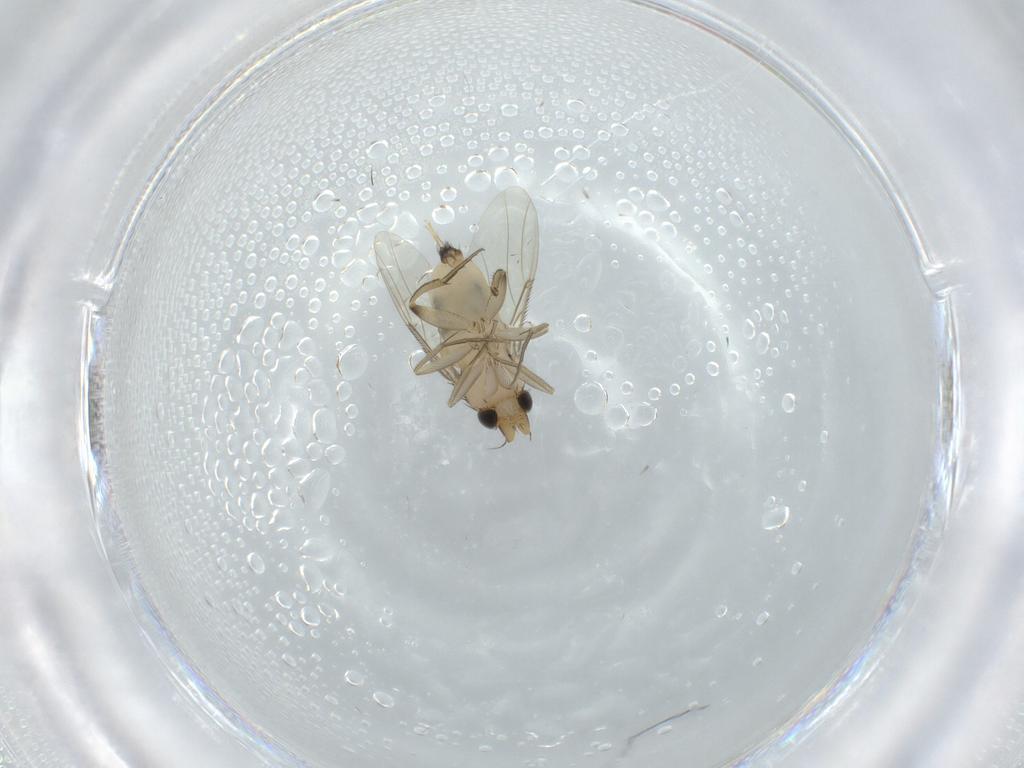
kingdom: Animalia
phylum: Arthropoda
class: Insecta
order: Diptera
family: Phoridae
